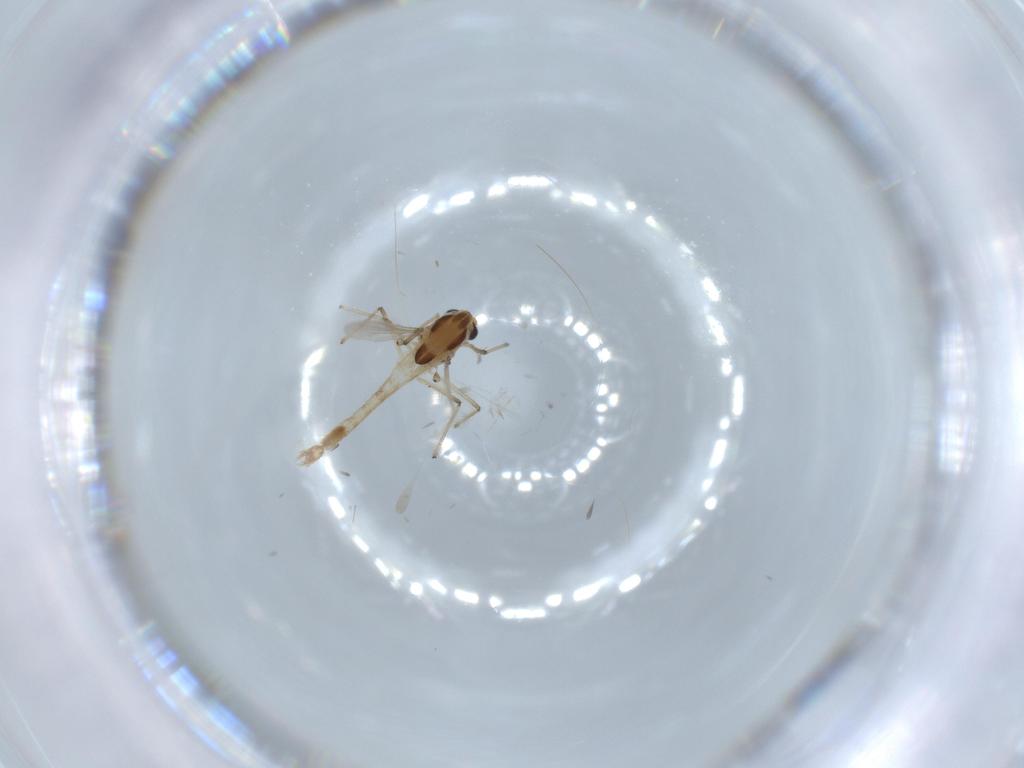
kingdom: Animalia
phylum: Arthropoda
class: Insecta
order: Diptera
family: Chironomidae
